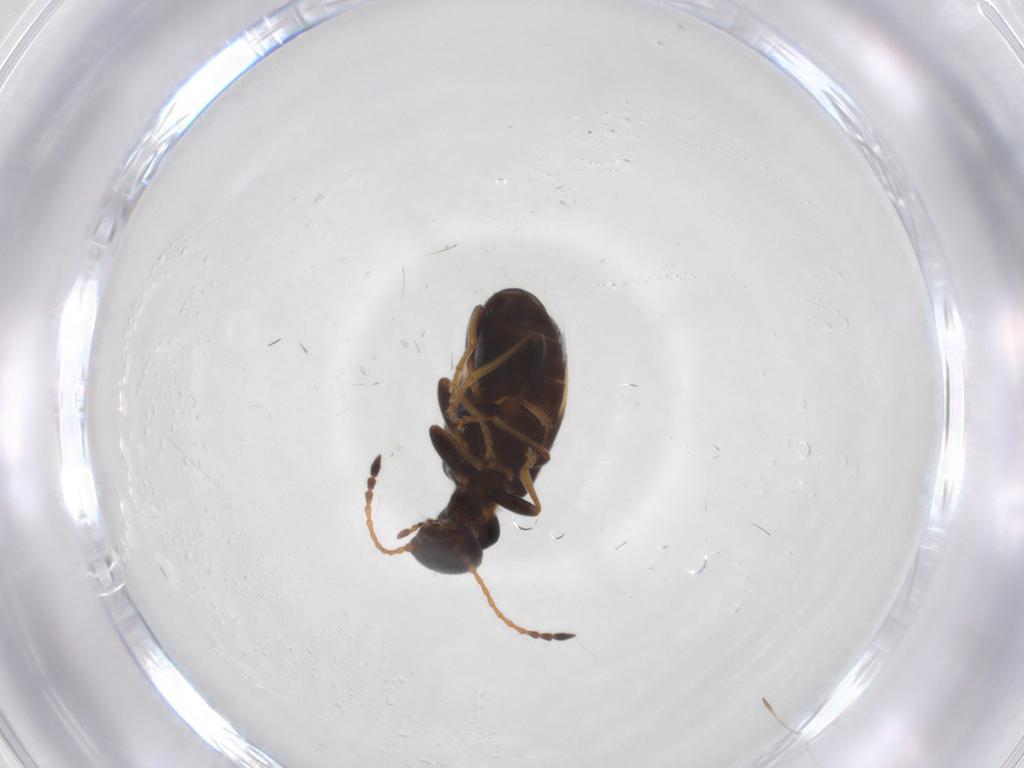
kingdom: Animalia
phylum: Arthropoda
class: Insecta
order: Coleoptera
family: Anthicidae
